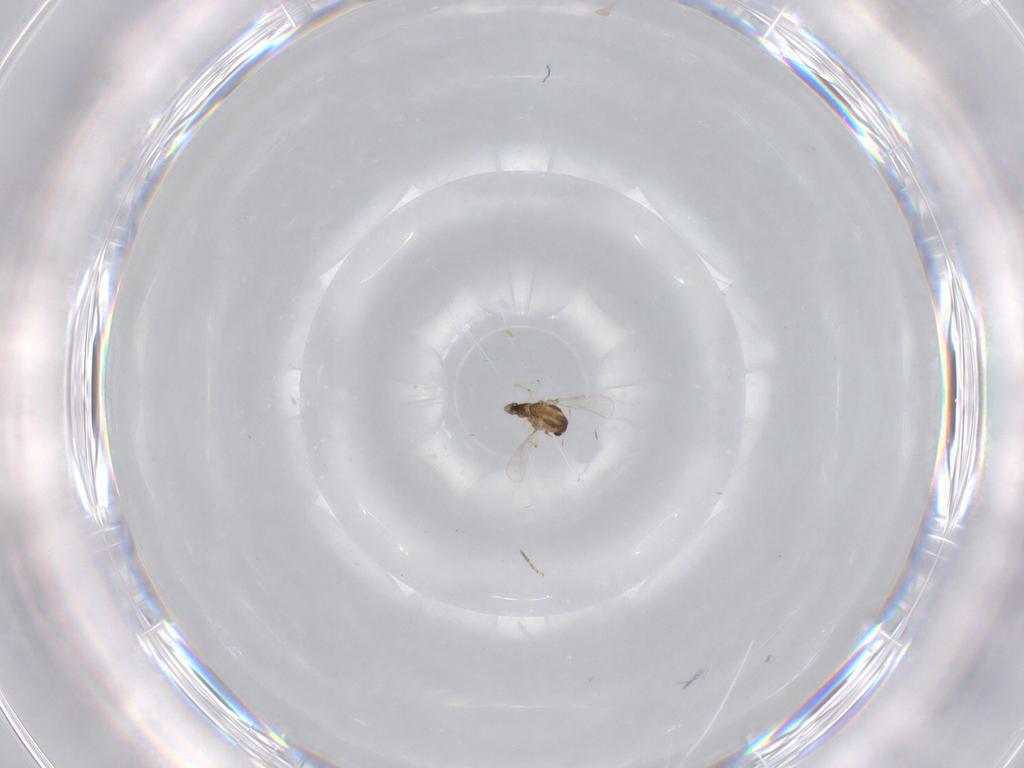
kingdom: Animalia
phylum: Arthropoda
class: Insecta
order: Diptera
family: Chironomidae
